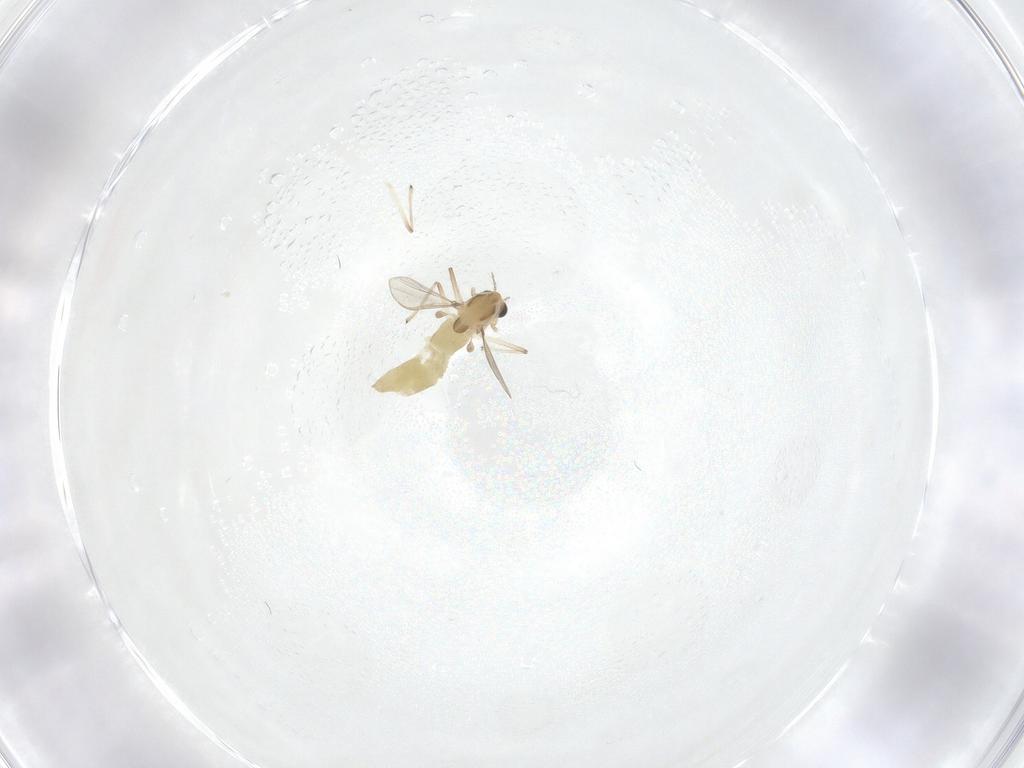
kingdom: Animalia
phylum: Arthropoda
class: Insecta
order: Diptera
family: Chironomidae
